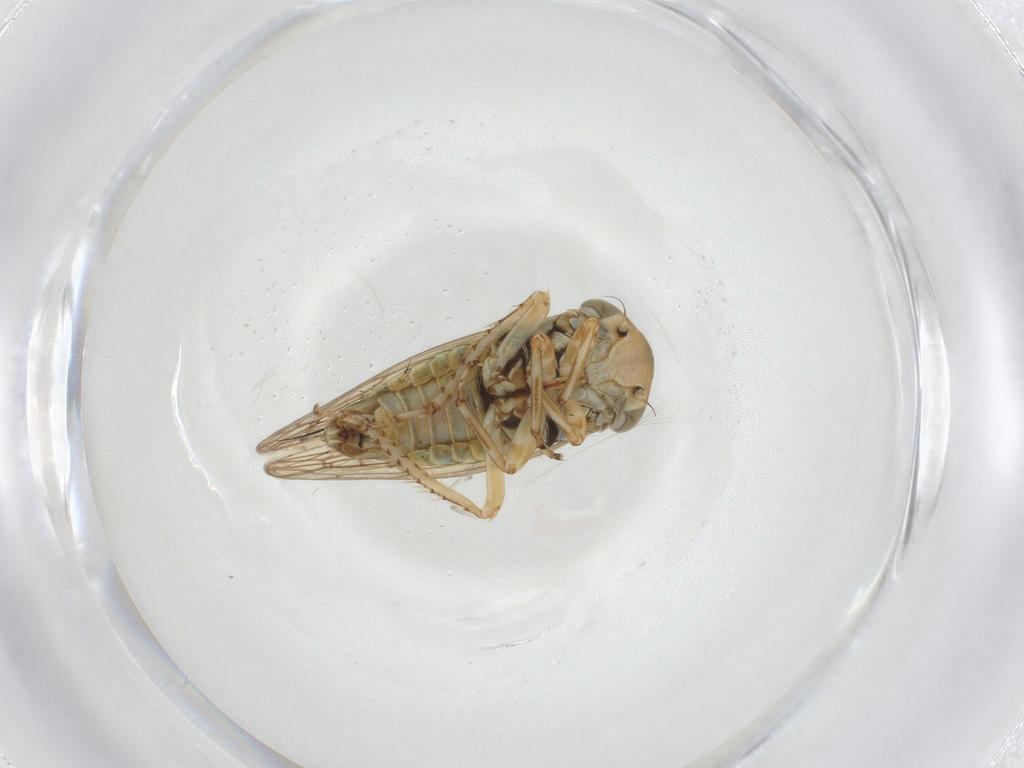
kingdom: Animalia
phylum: Arthropoda
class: Insecta
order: Hemiptera
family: Cicadellidae
